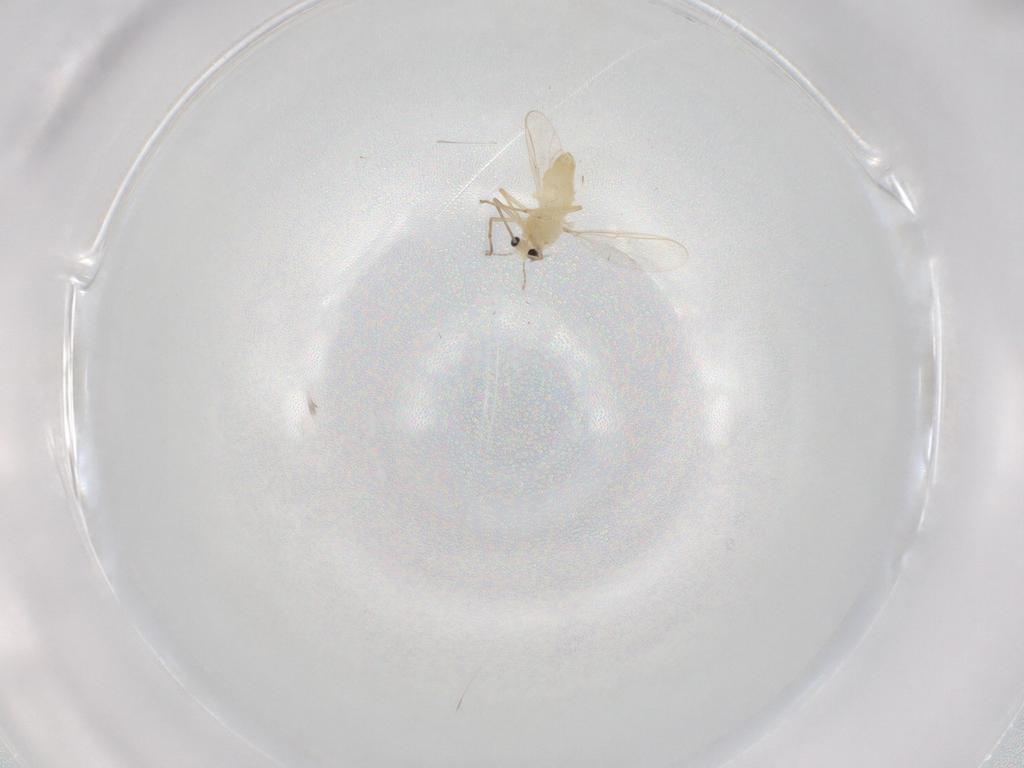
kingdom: Animalia
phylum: Arthropoda
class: Insecta
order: Diptera
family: Chironomidae
